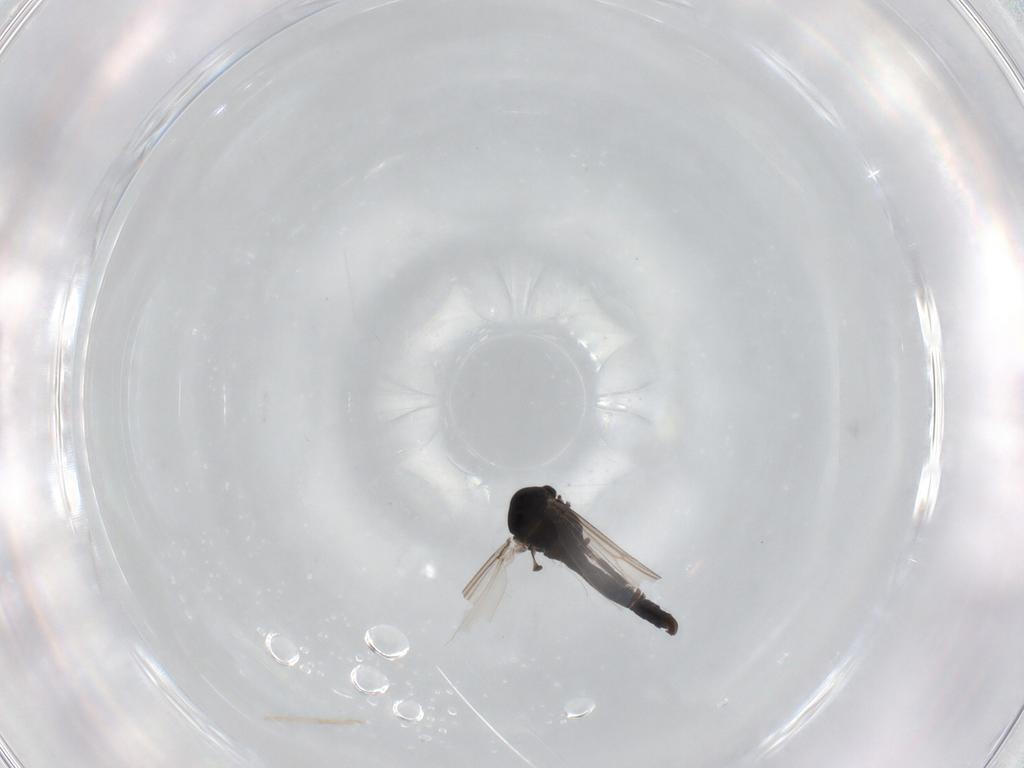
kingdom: Animalia
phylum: Arthropoda
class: Insecta
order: Diptera
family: Chironomidae
